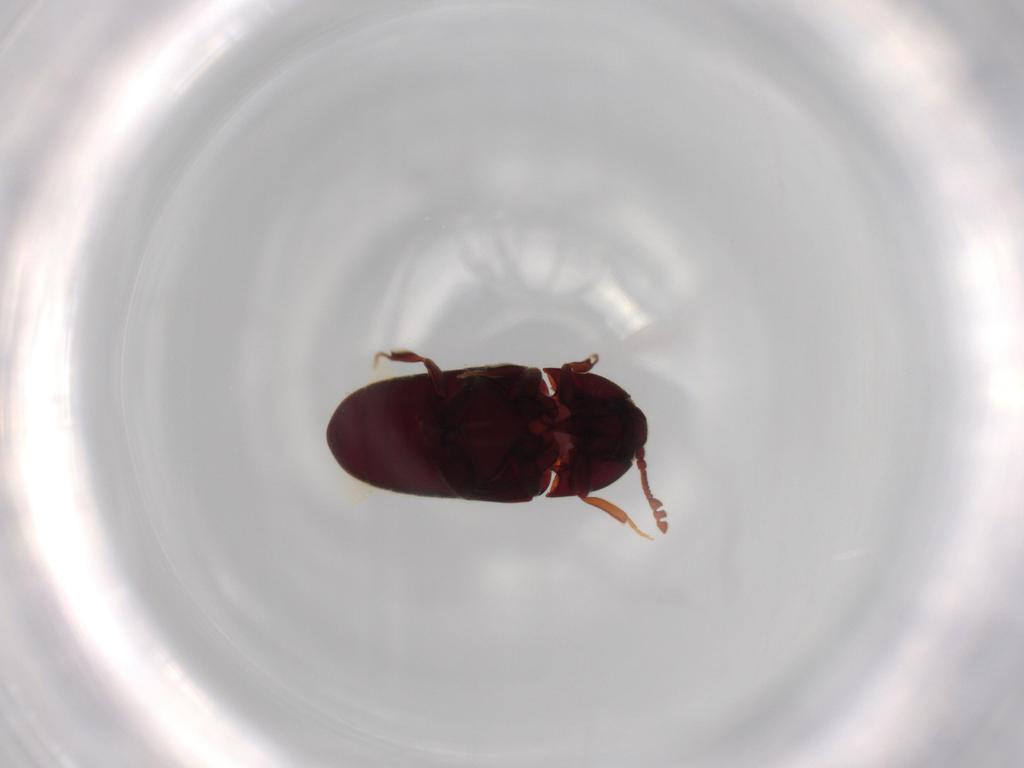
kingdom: Animalia
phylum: Arthropoda
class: Insecta
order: Coleoptera
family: Throscidae
